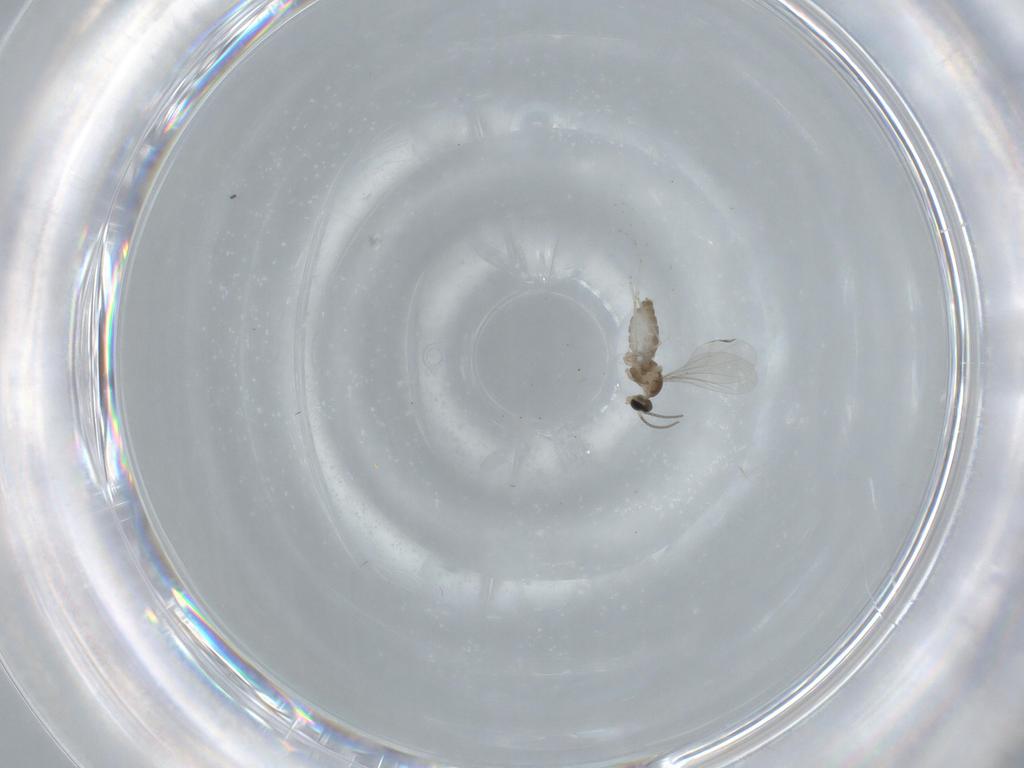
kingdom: Animalia
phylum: Arthropoda
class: Insecta
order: Diptera
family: Cecidomyiidae
